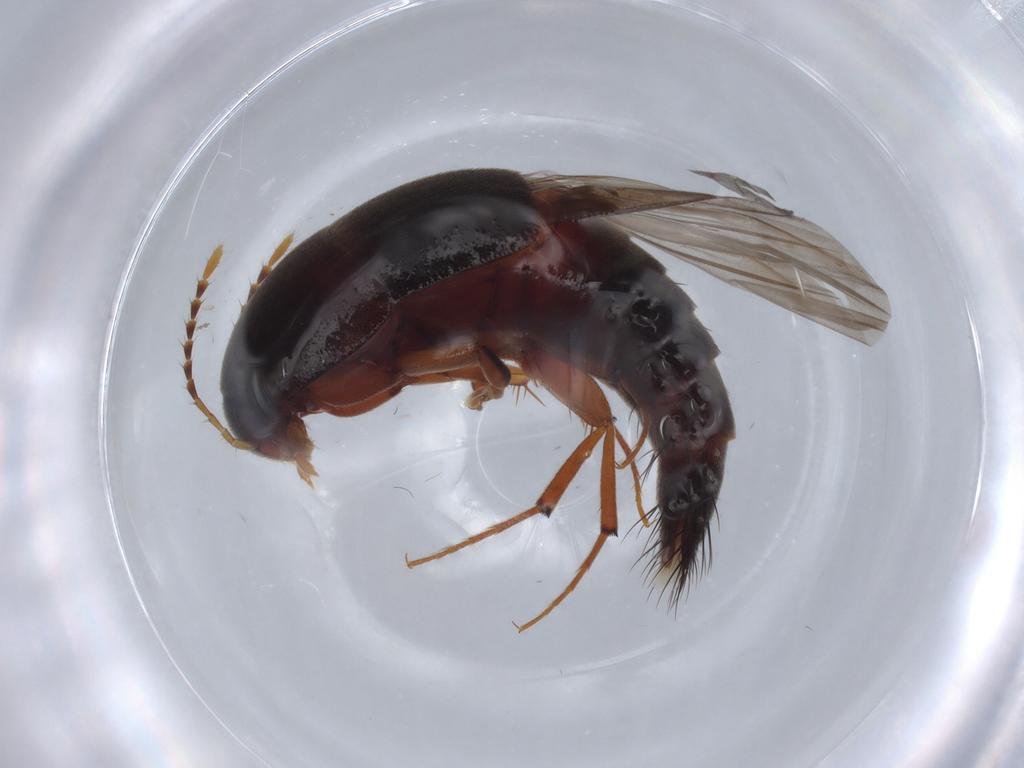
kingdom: Animalia
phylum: Arthropoda
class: Insecta
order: Coleoptera
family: Staphylinidae
